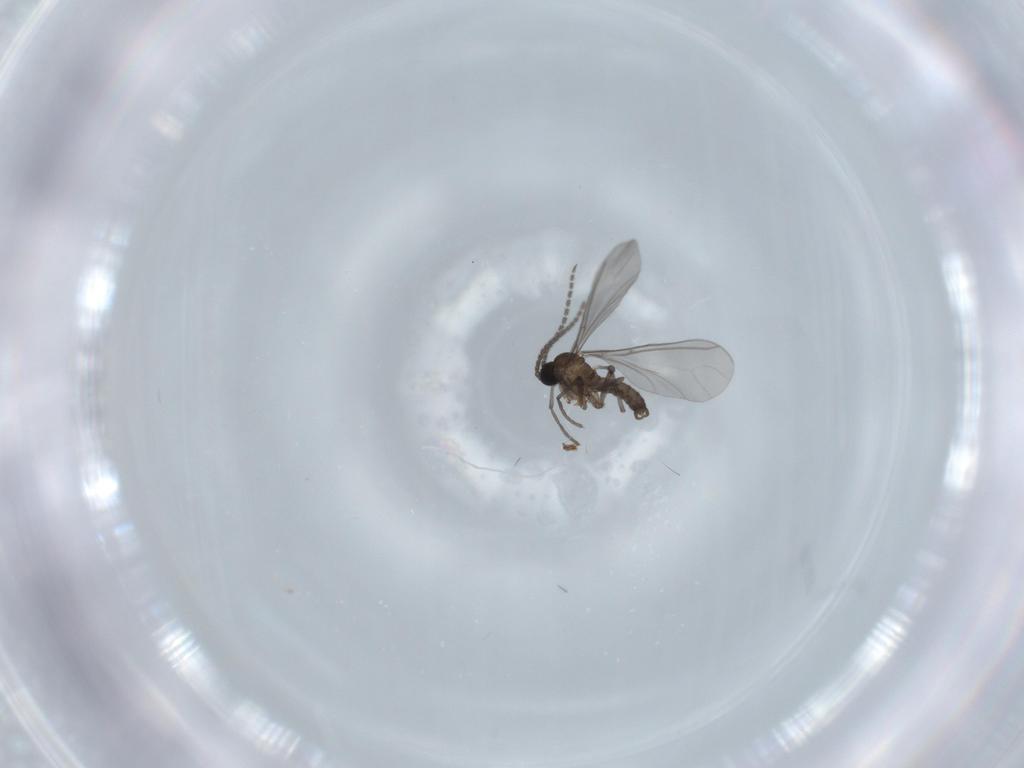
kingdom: Animalia
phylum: Arthropoda
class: Insecta
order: Diptera
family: Sciaridae
